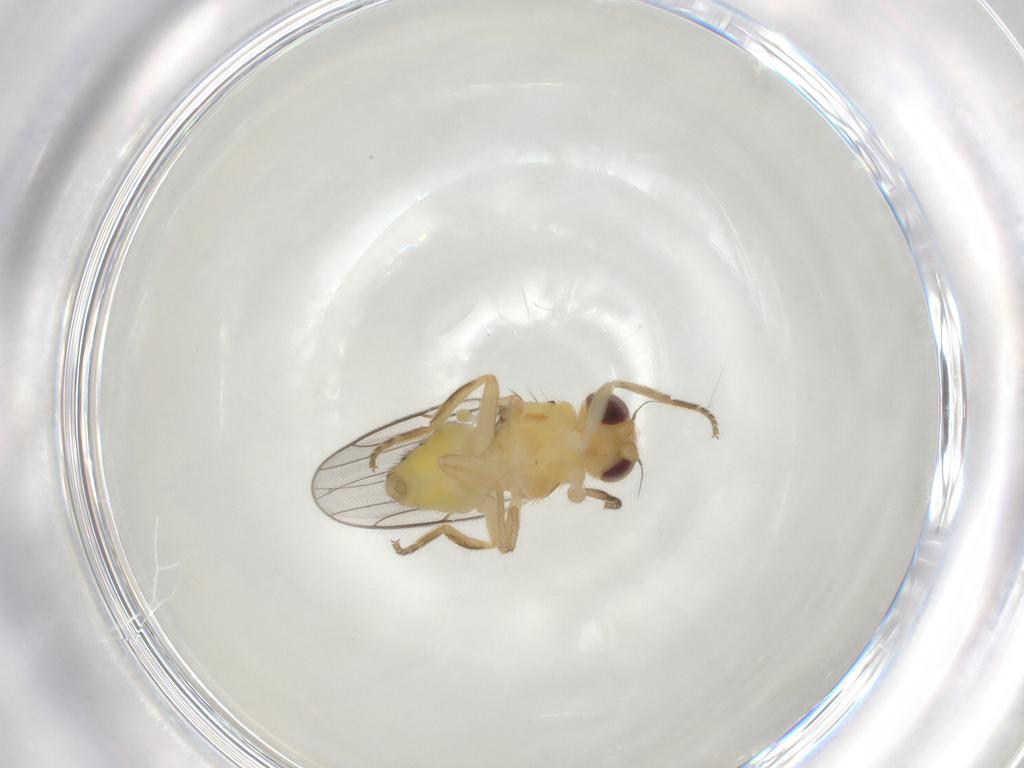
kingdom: Animalia
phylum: Arthropoda
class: Insecta
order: Diptera
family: Chloropidae
